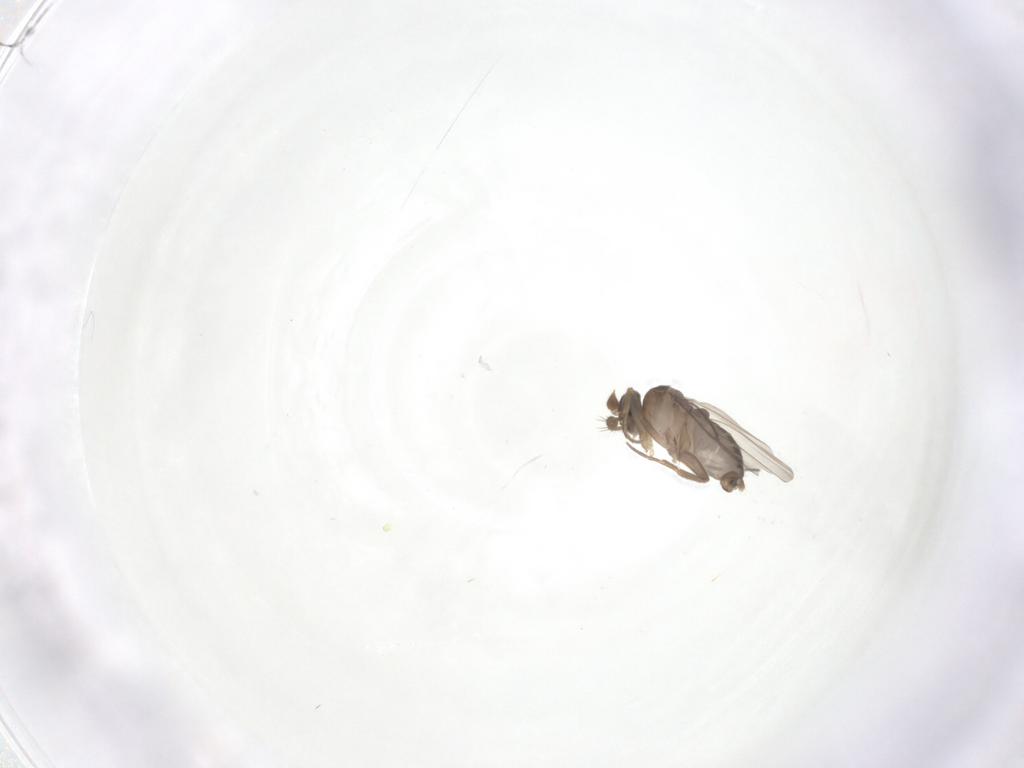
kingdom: Animalia
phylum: Arthropoda
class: Insecta
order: Diptera
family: Phoridae
